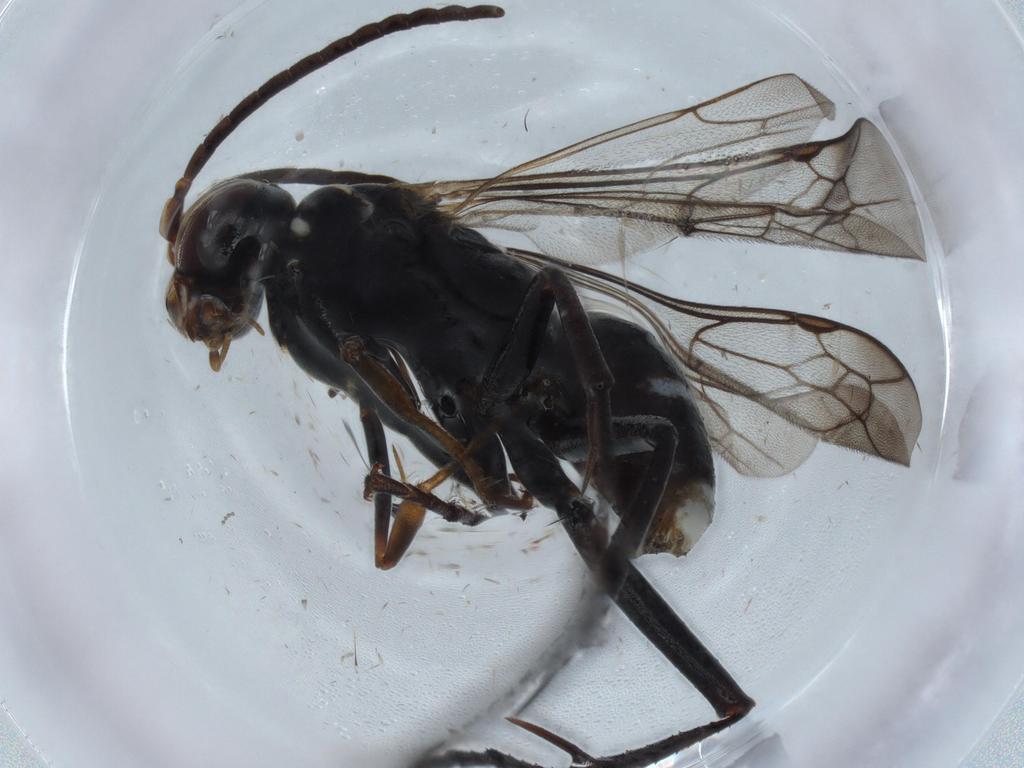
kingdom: Animalia
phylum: Arthropoda
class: Insecta
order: Hymenoptera
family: Pompilidae
